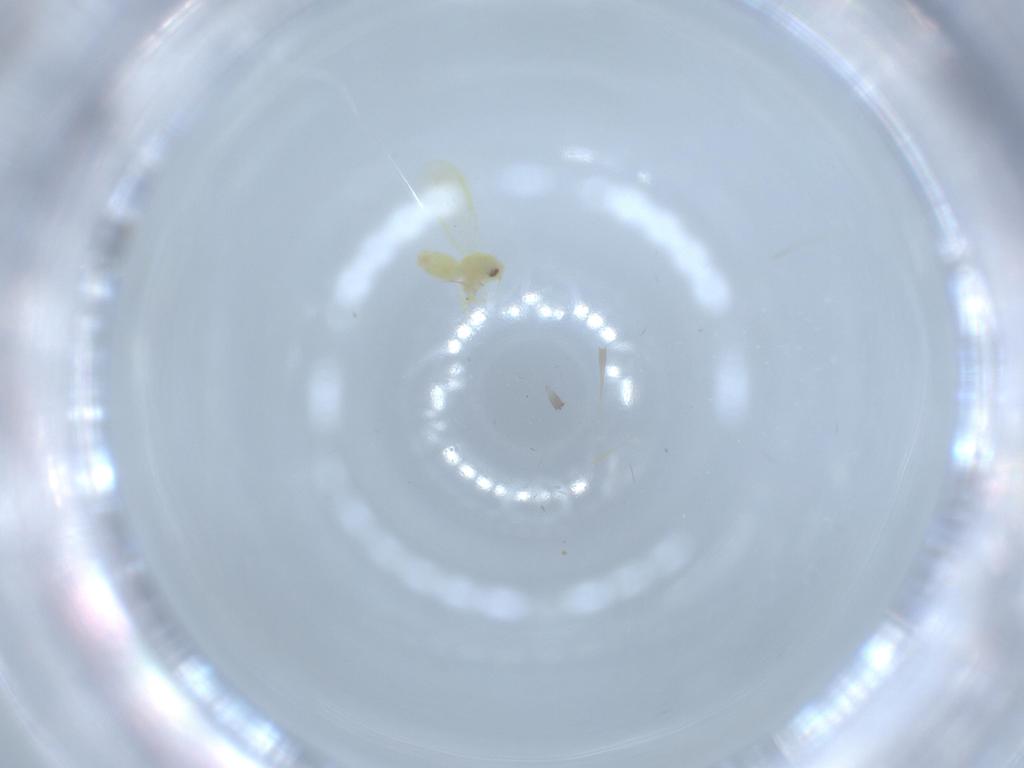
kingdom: Animalia
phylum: Arthropoda
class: Insecta
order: Hemiptera
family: Aleyrodidae
